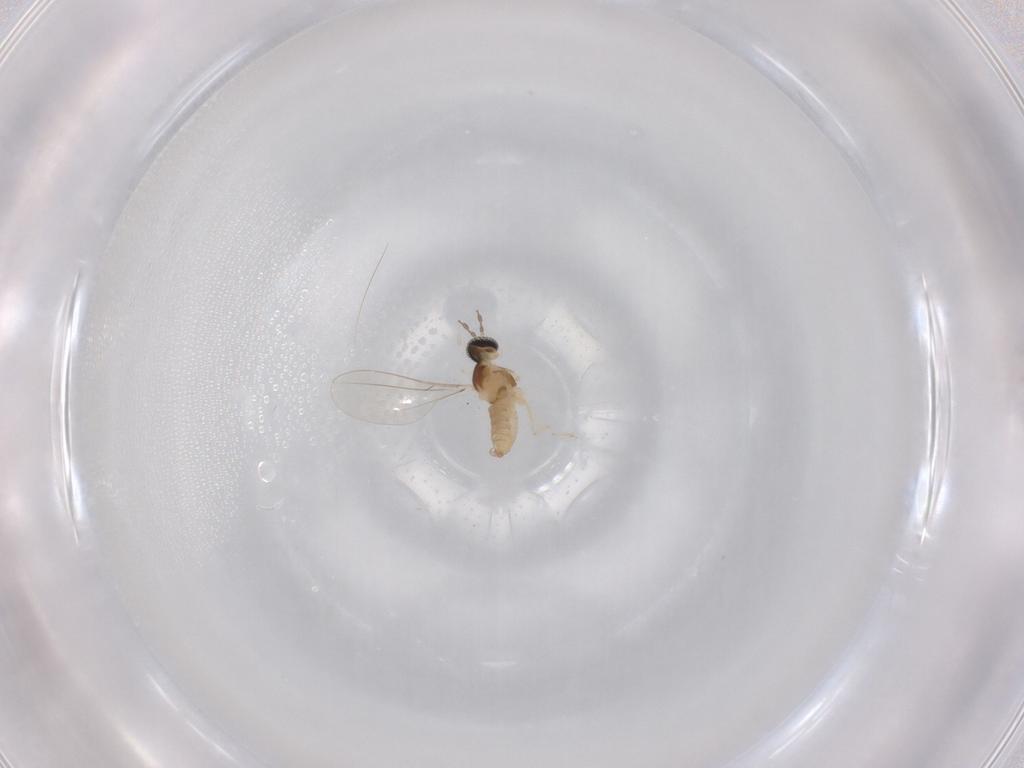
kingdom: Animalia
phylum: Arthropoda
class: Insecta
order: Diptera
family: Cecidomyiidae
